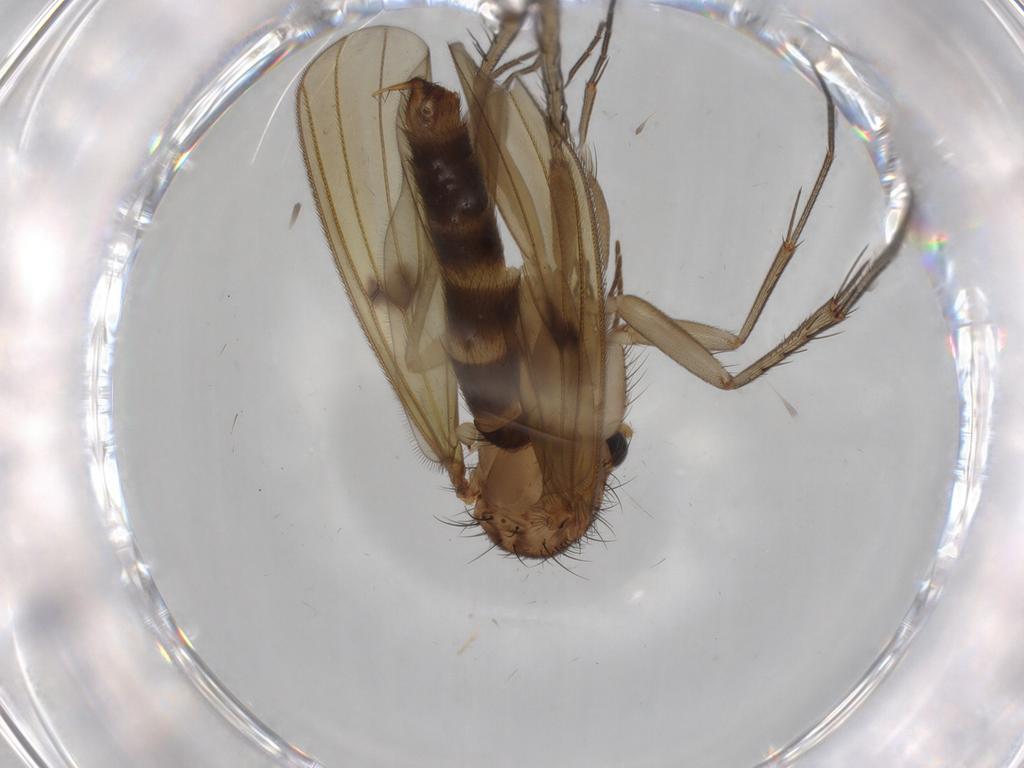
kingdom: Animalia
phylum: Arthropoda
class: Insecta
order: Diptera
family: Mycetophilidae
